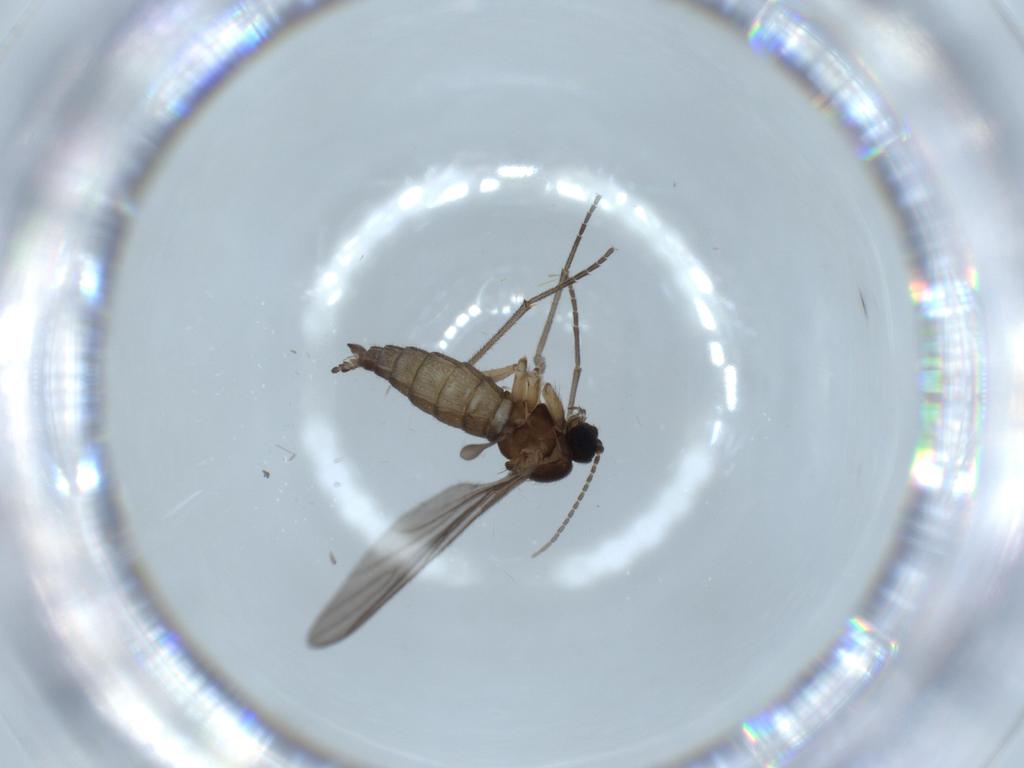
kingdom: Animalia
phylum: Arthropoda
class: Insecta
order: Diptera
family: Sciaridae
